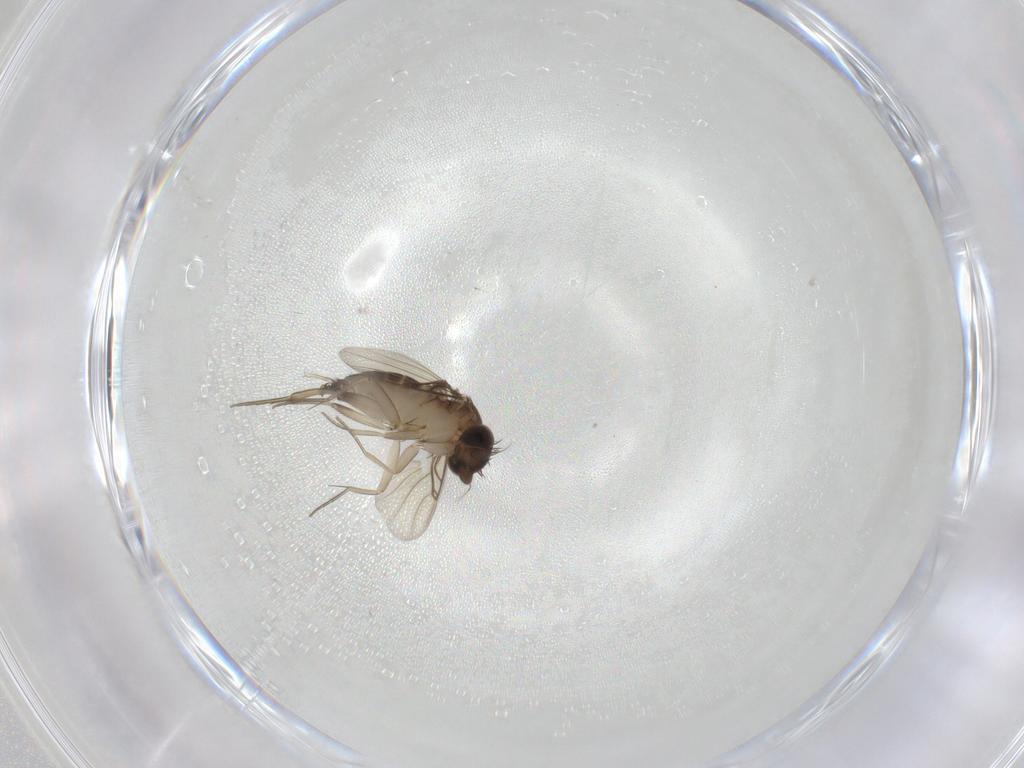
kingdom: Animalia
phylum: Arthropoda
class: Insecta
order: Diptera
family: Phoridae
